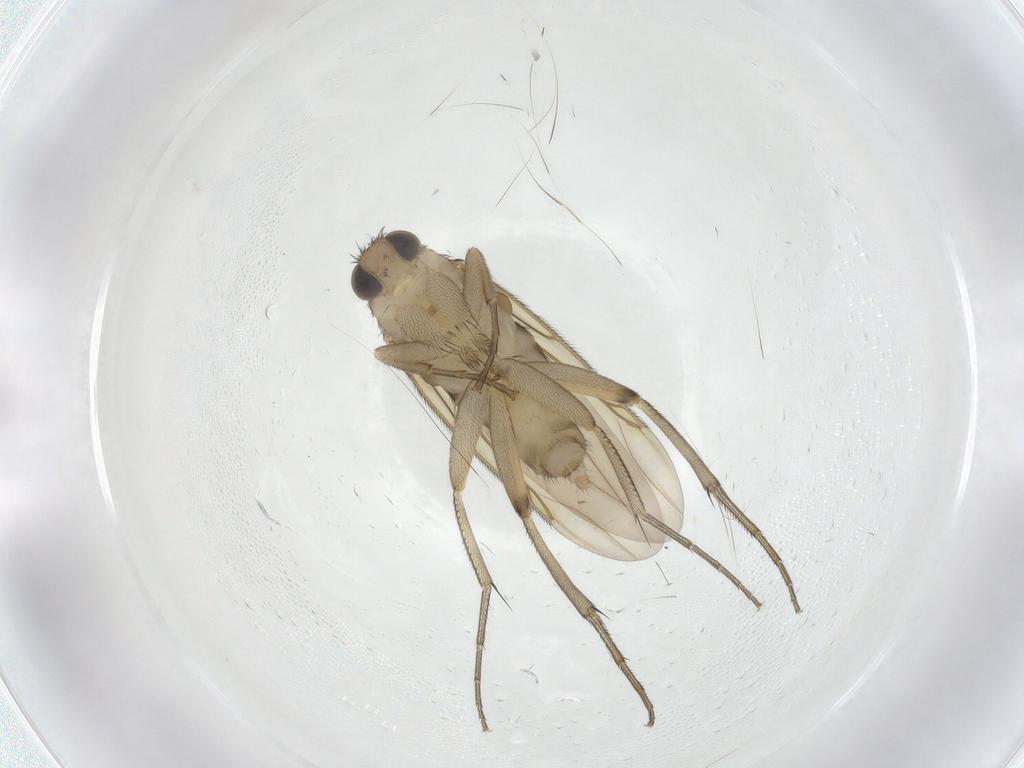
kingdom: Animalia
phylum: Arthropoda
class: Insecta
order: Diptera
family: Phoridae
